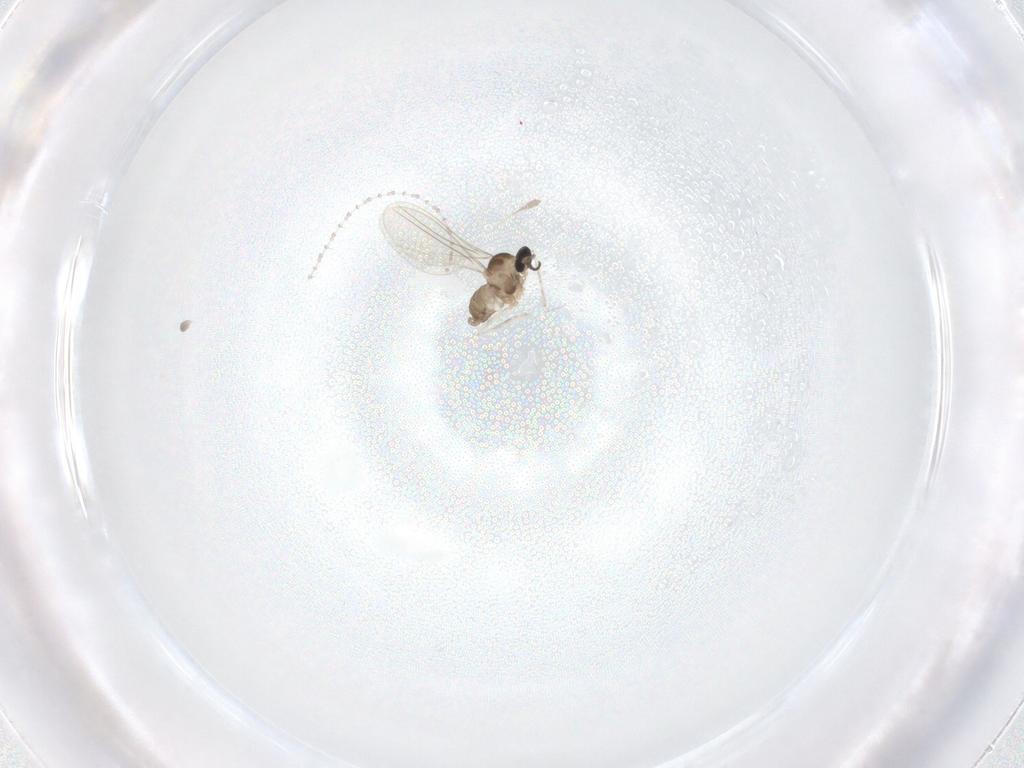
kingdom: Animalia
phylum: Arthropoda
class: Insecta
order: Diptera
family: Cecidomyiidae
